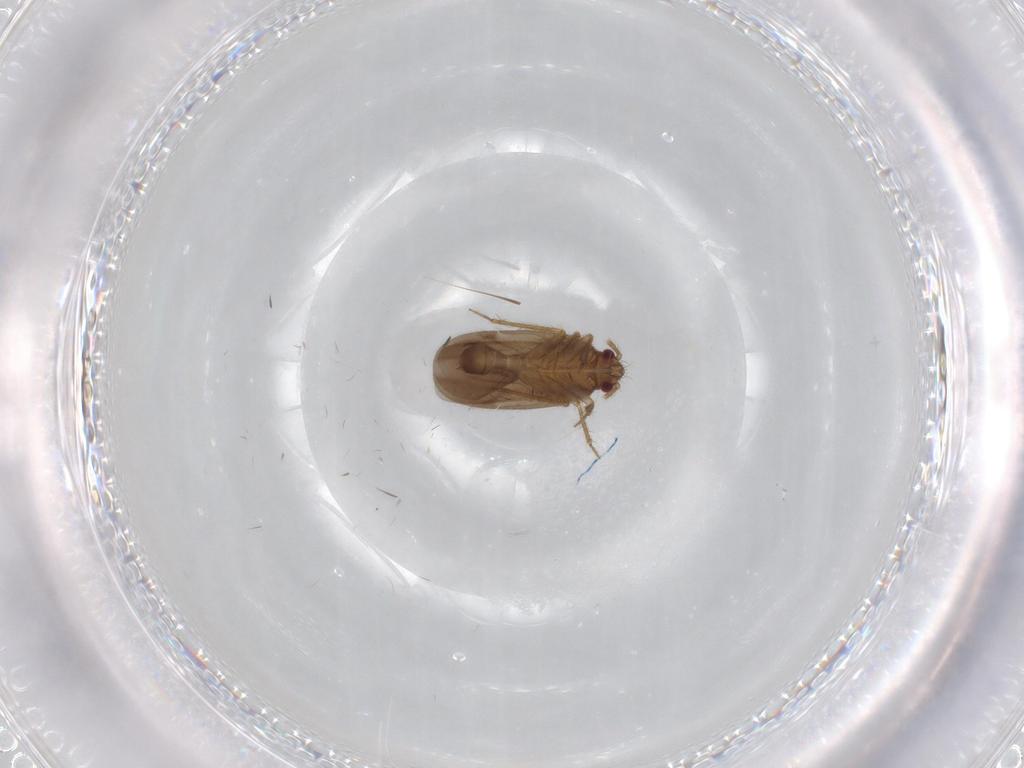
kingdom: Animalia
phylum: Arthropoda
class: Insecta
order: Hemiptera
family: Ceratocombidae
